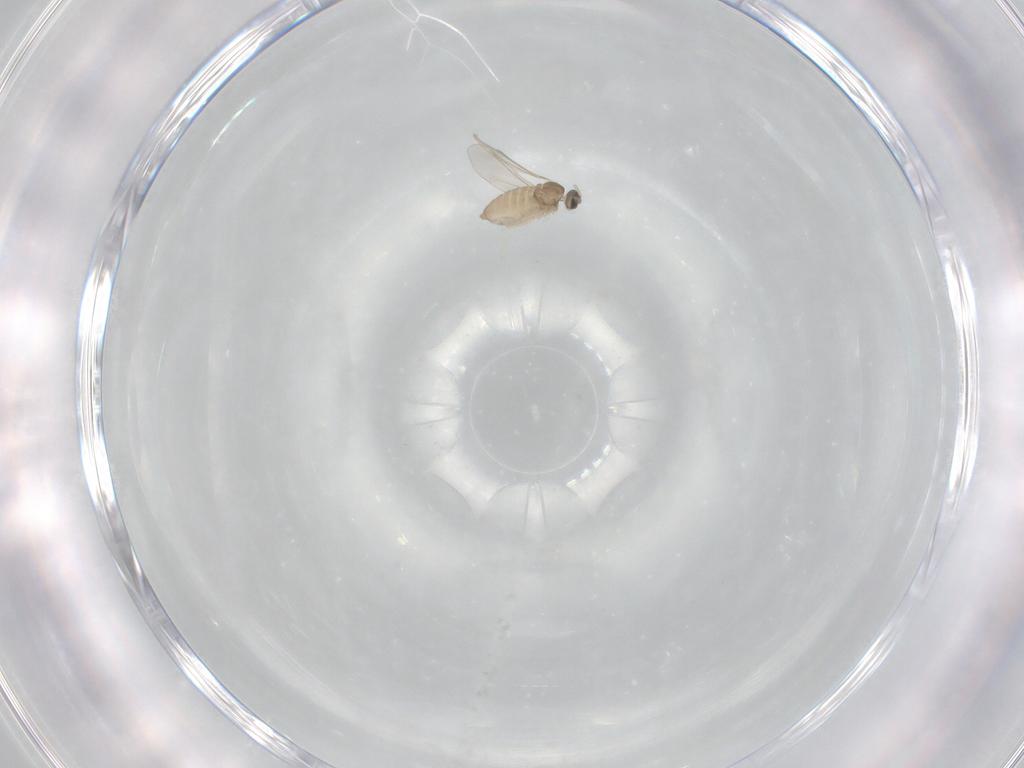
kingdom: Animalia
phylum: Arthropoda
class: Insecta
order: Diptera
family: Cecidomyiidae
